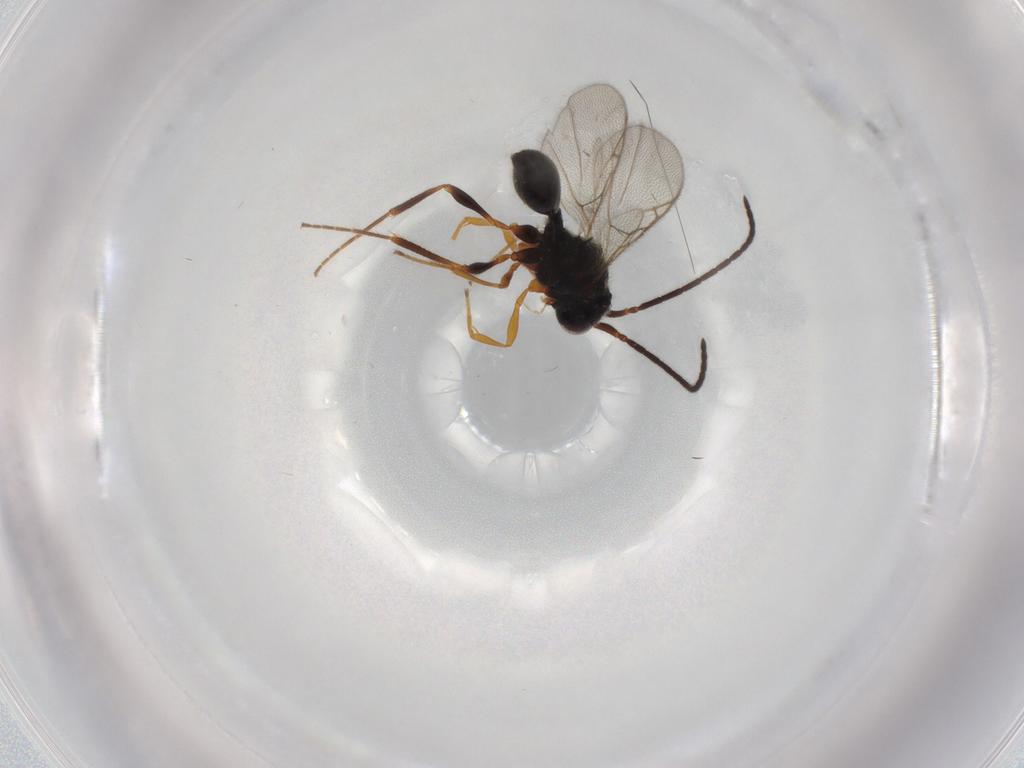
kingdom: Animalia
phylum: Arthropoda
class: Insecta
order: Hymenoptera
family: Diapriidae
